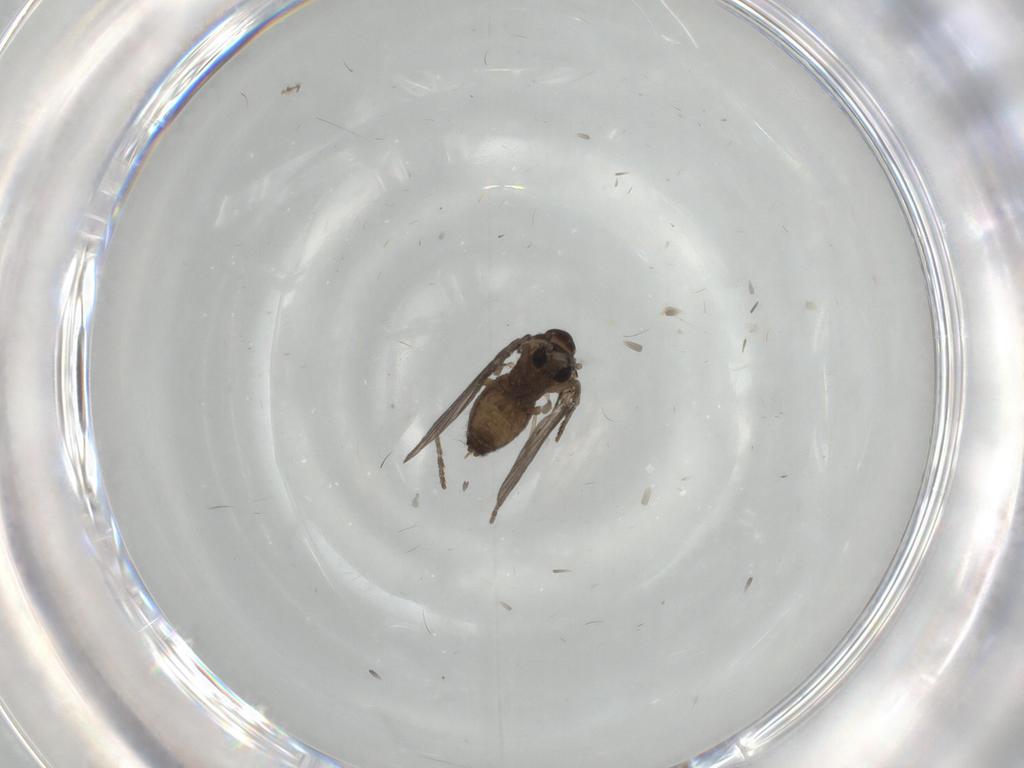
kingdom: Animalia
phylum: Arthropoda
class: Insecta
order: Diptera
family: Psychodidae
